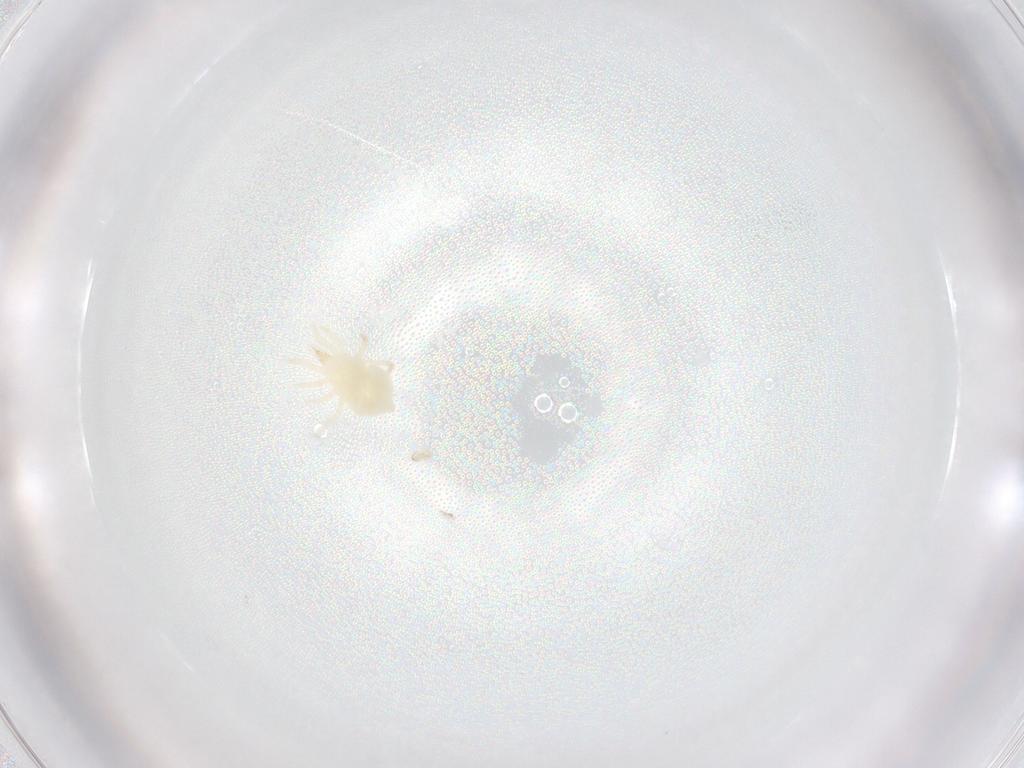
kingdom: Animalia
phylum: Arthropoda
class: Arachnida
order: Mesostigmata
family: Melicharidae
